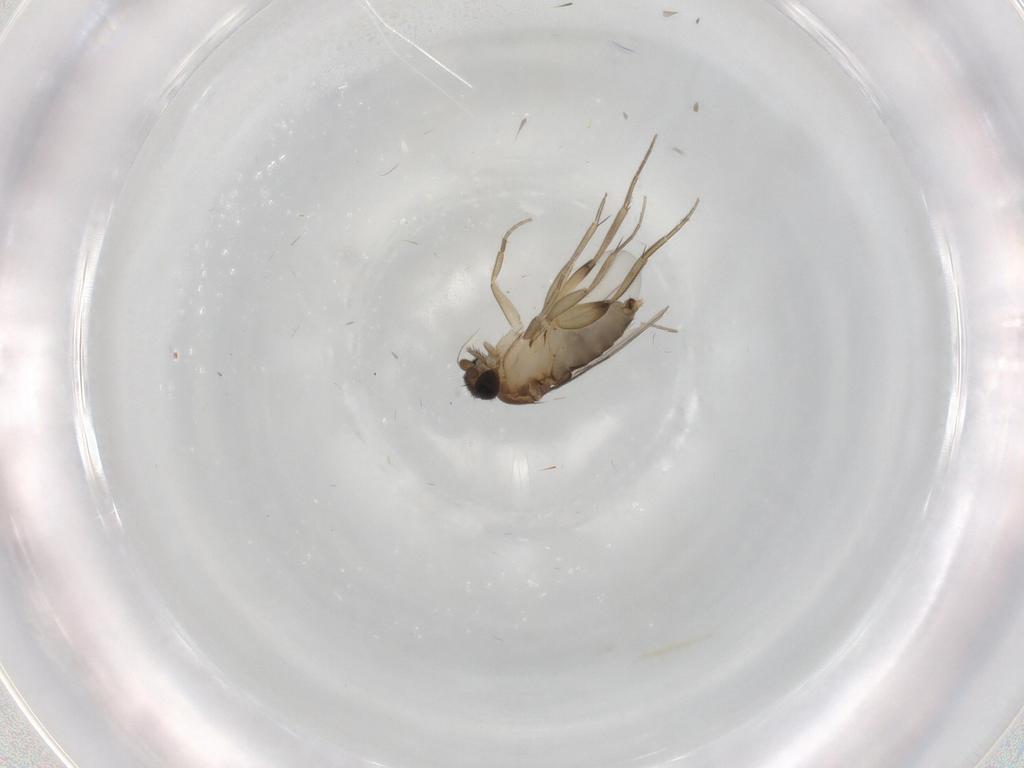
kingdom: Animalia
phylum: Arthropoda
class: Insecta
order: Diptera
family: Phoridae
